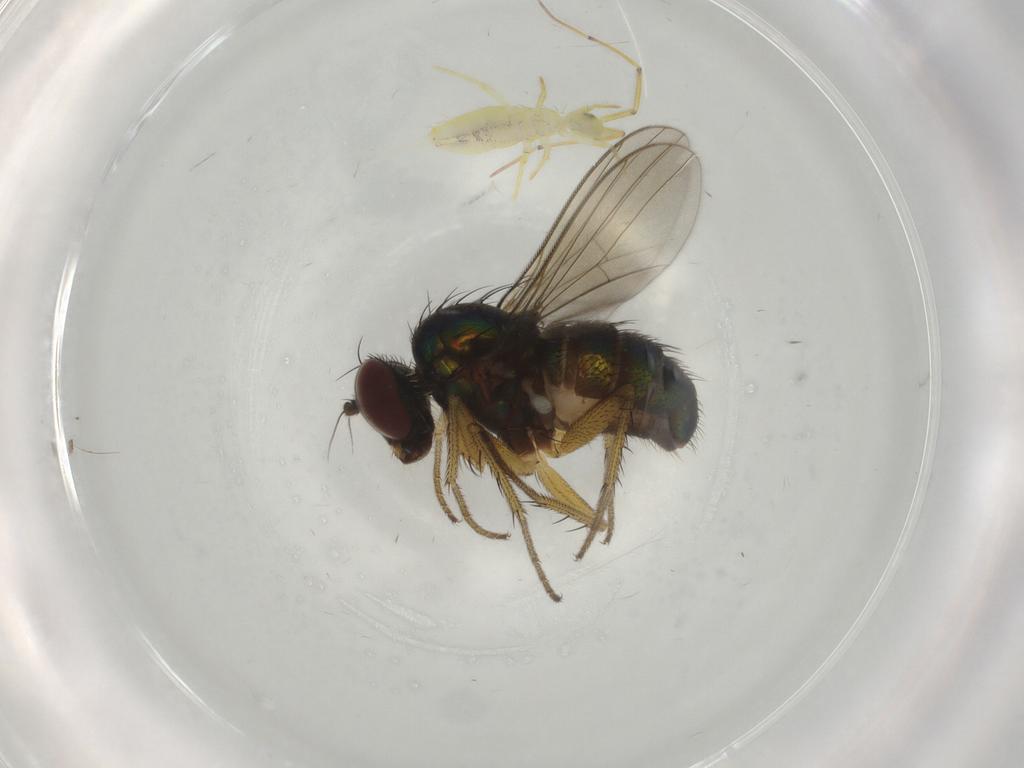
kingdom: Animalia
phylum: Arthropoda
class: Insecta
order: Diptera
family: Dolichopodidae
